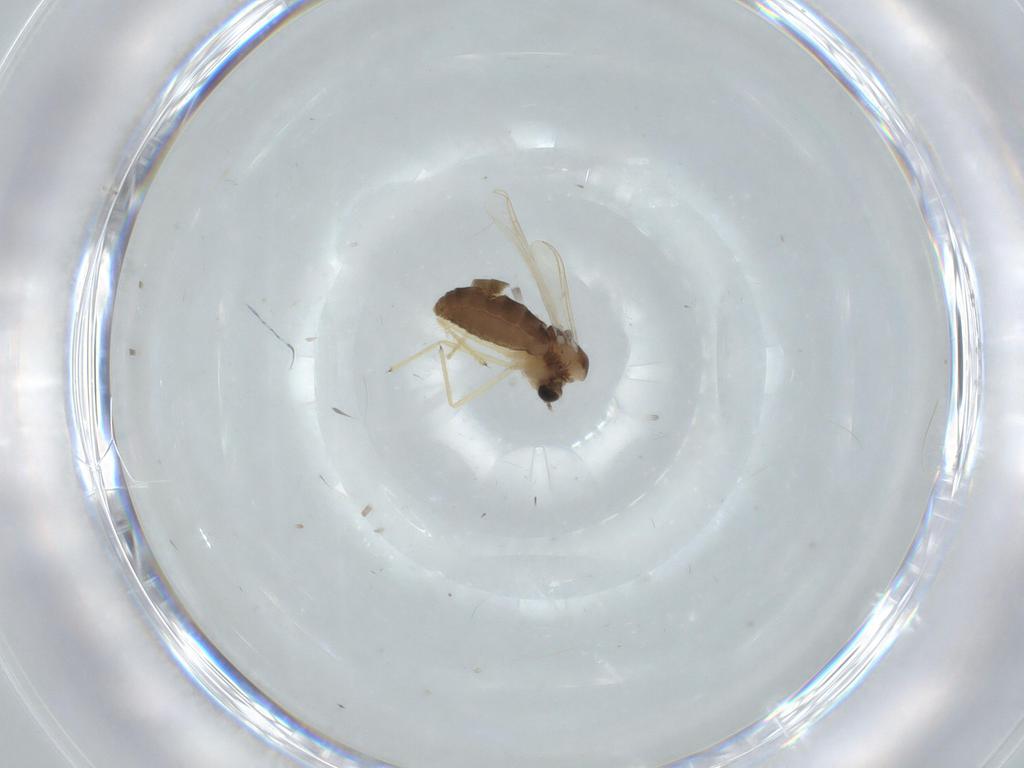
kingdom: Animalia
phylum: Arthropoda
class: Insecta
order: Diptera
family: Chironomidae
